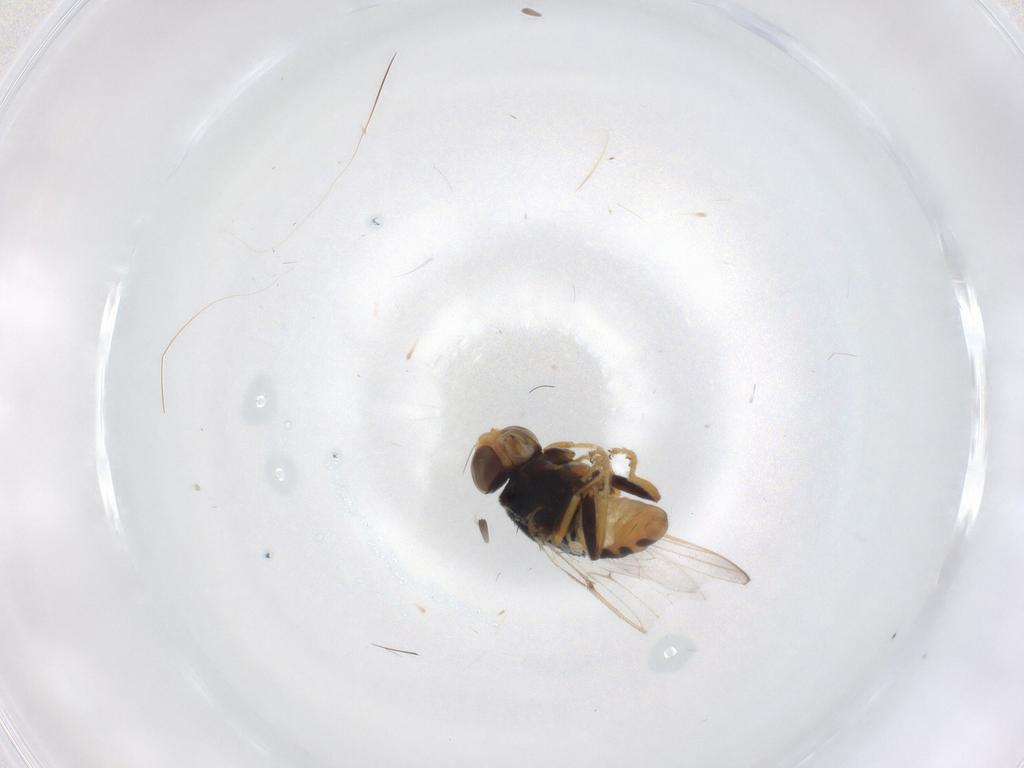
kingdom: Animalia
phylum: Arthropoda
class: Insecta
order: Diptera
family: Chloropidae
